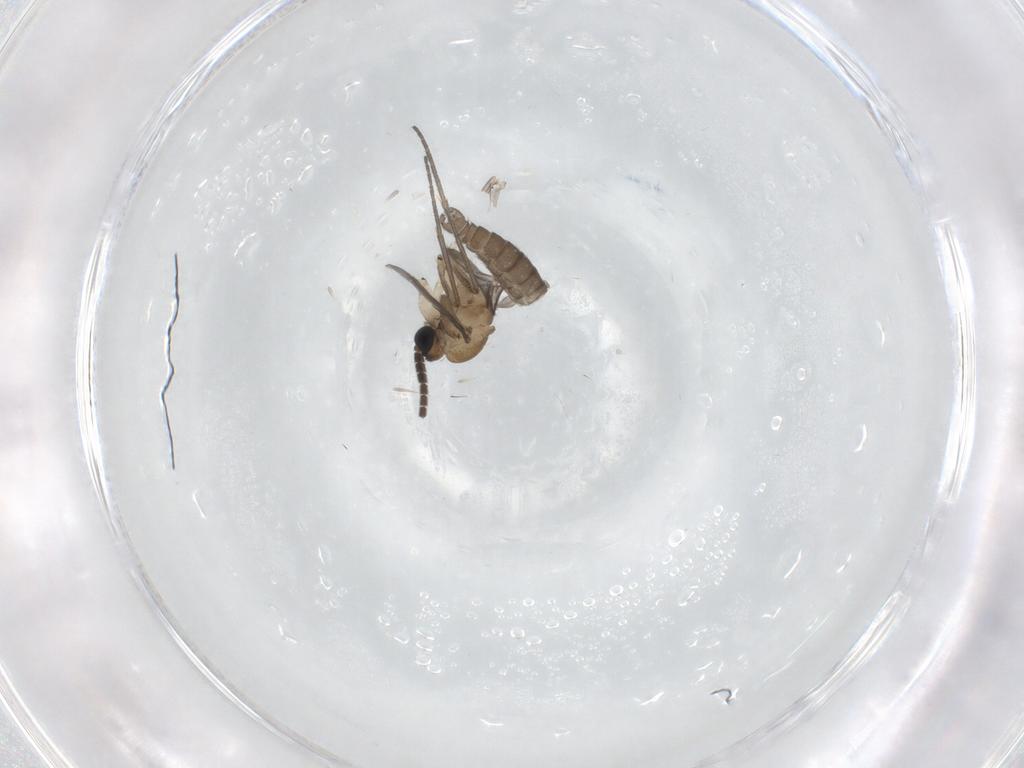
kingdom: Animalia
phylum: Arthropoda
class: Insecta
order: Diptera
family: Sciaridae
